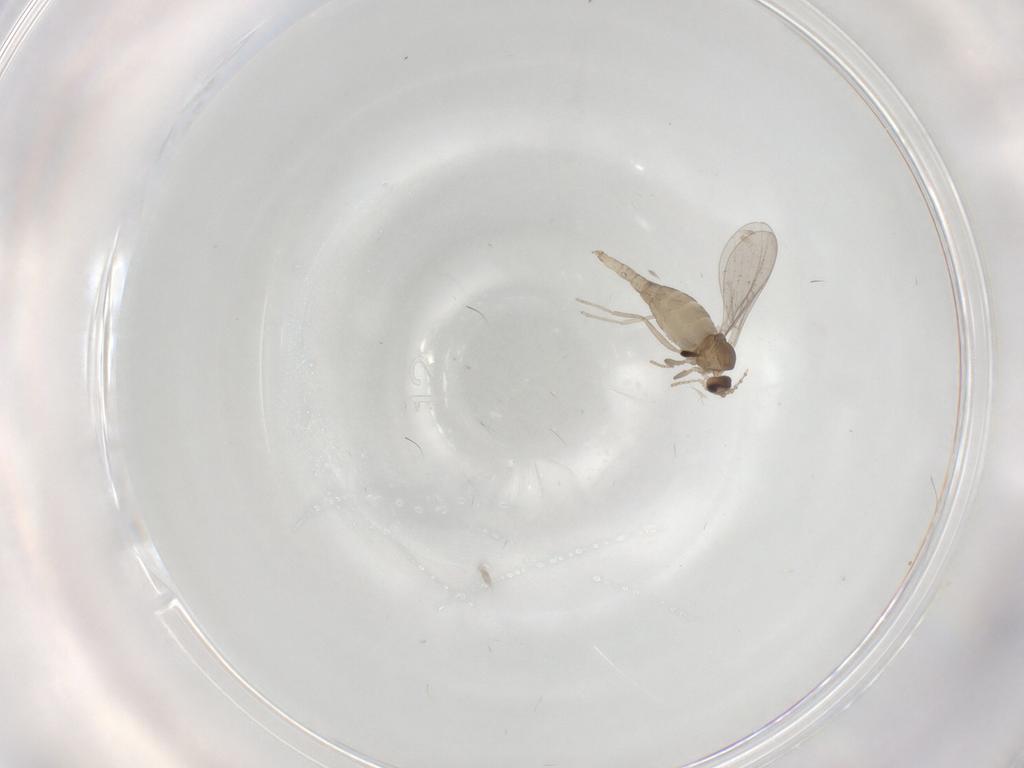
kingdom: Animalia
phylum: Arthropoda
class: Insecta
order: Diptera
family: Cecidomyiidae
